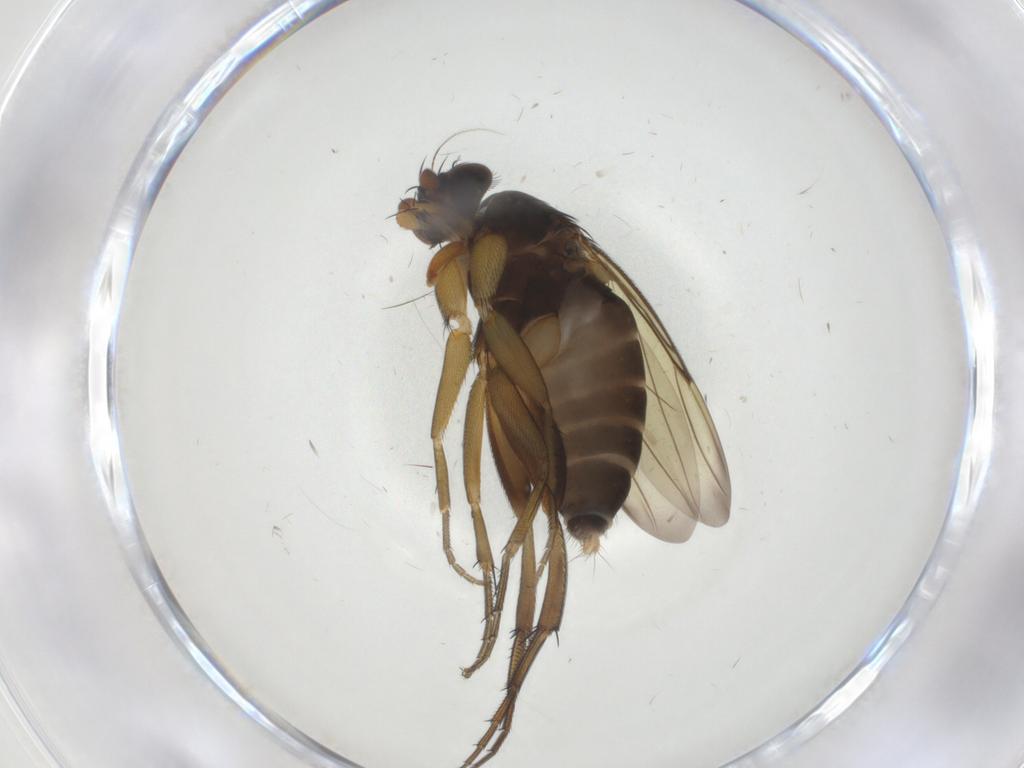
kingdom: Animalia
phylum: Arthropoda
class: Insecta
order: Diptera
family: Phoridae
